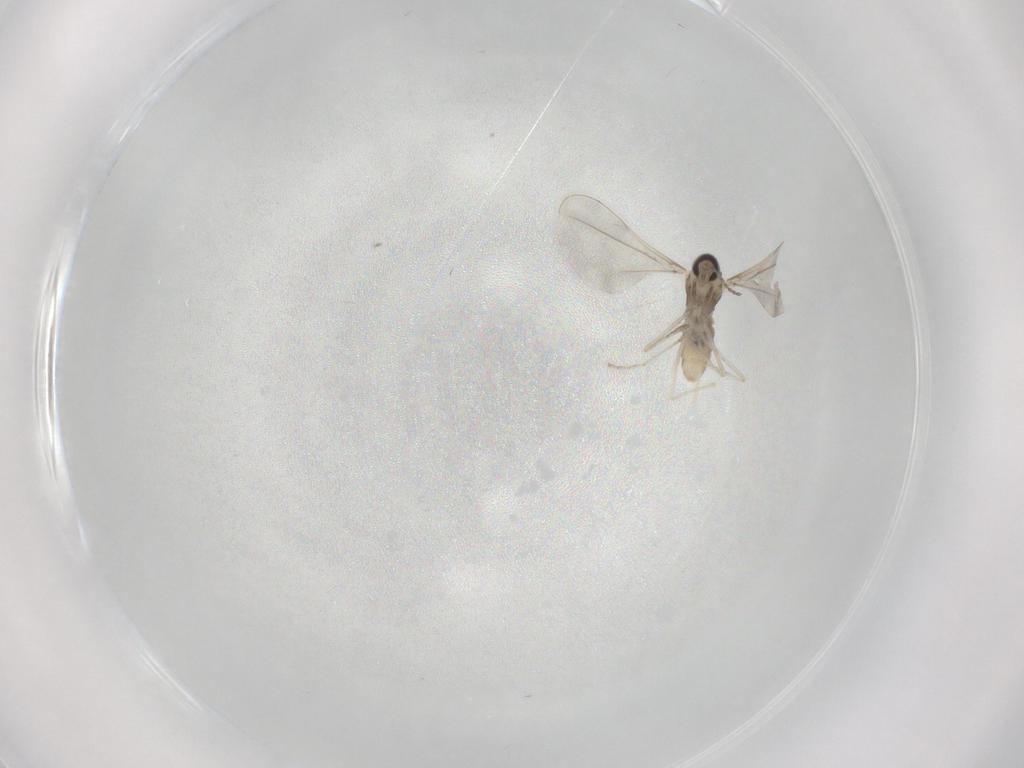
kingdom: Animalia
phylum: Arthropoda
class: Insecta
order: Diptera
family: Cecidomyiidae
